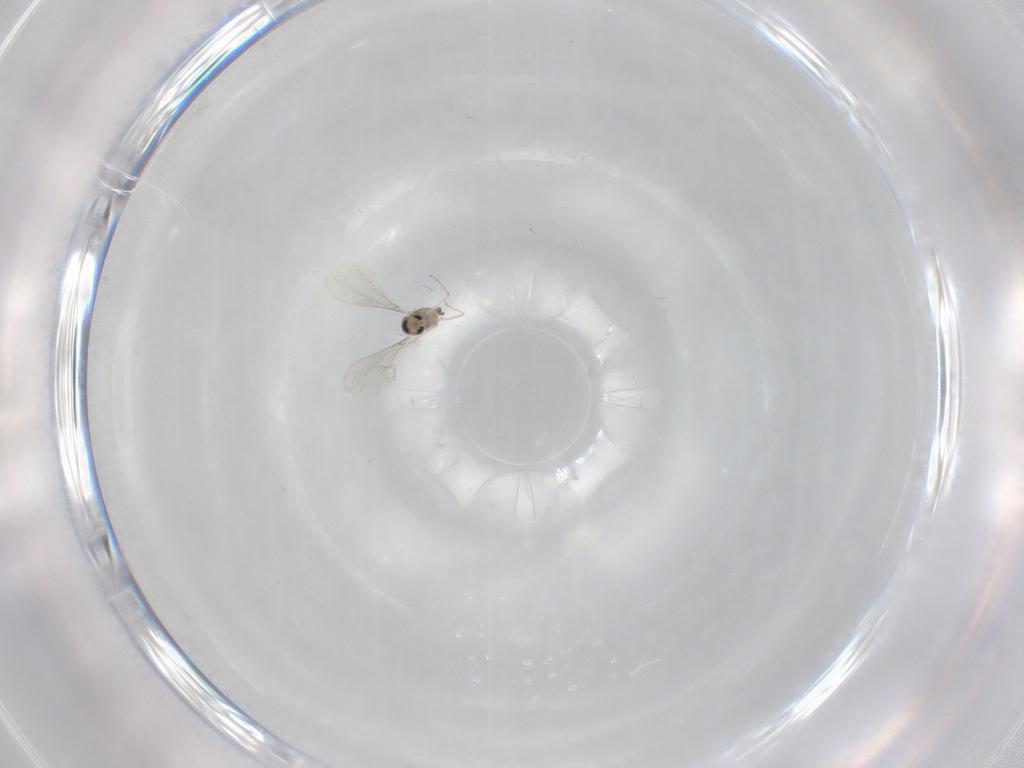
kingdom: Animalia
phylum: Arthropoda
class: Insecta
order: Diptera
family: Cecidomyiidae
